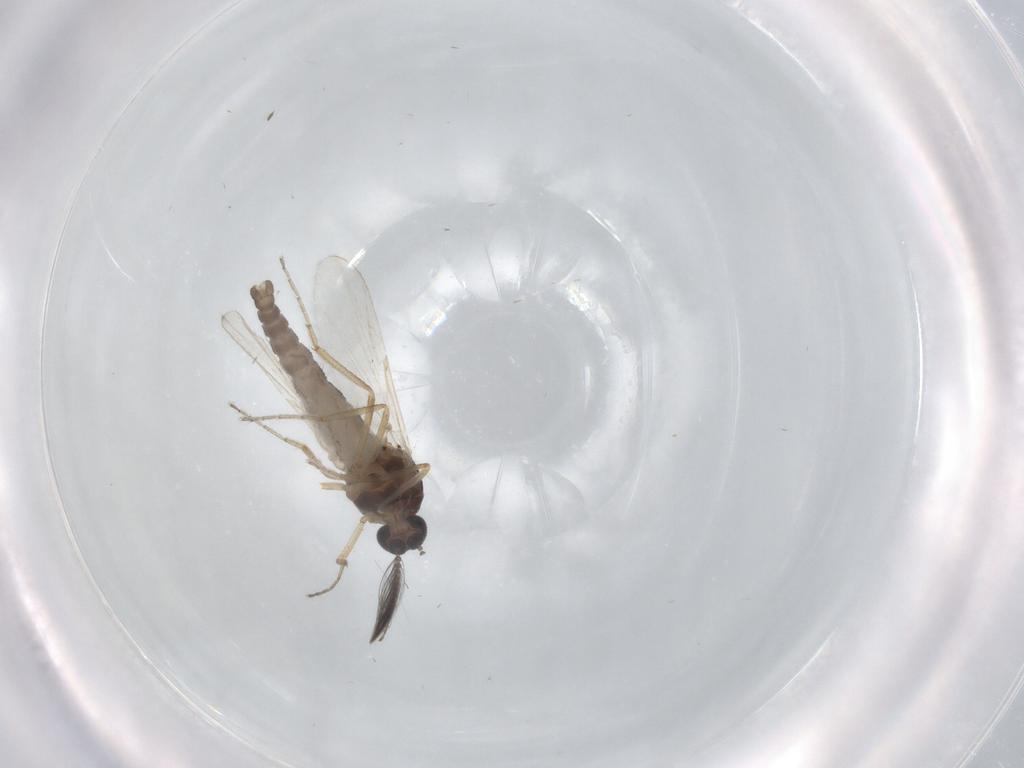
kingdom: Animalia
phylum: Arthropoda
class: Insecta
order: Diptera
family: Ceratopogonidae
